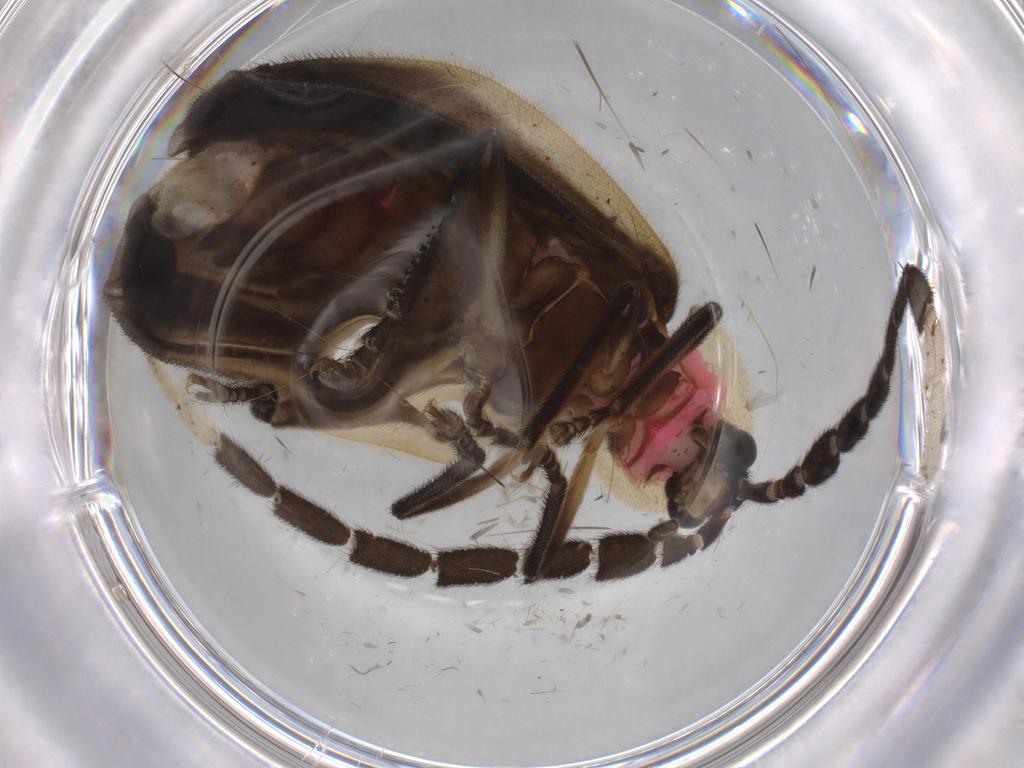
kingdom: Animalia
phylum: Arthropoda
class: Insecta
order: Coleoptera
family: Lampyridae
